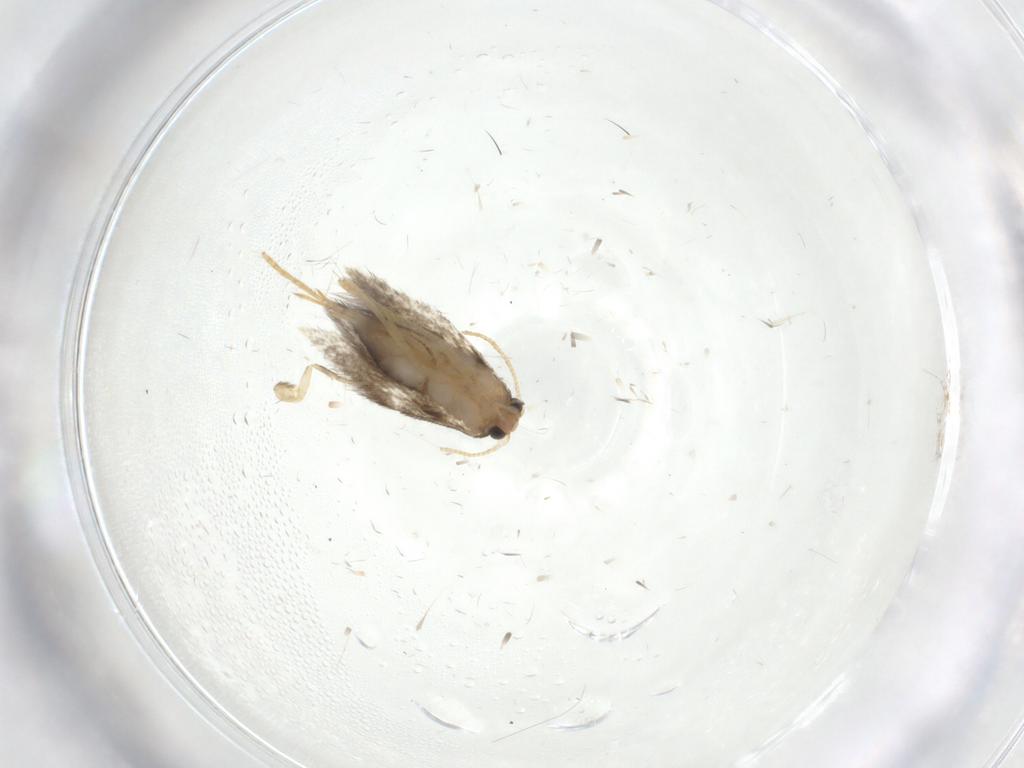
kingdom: Animalia
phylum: Arthropoda
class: Insecta
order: Lepidoptera
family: Nepticulidae
